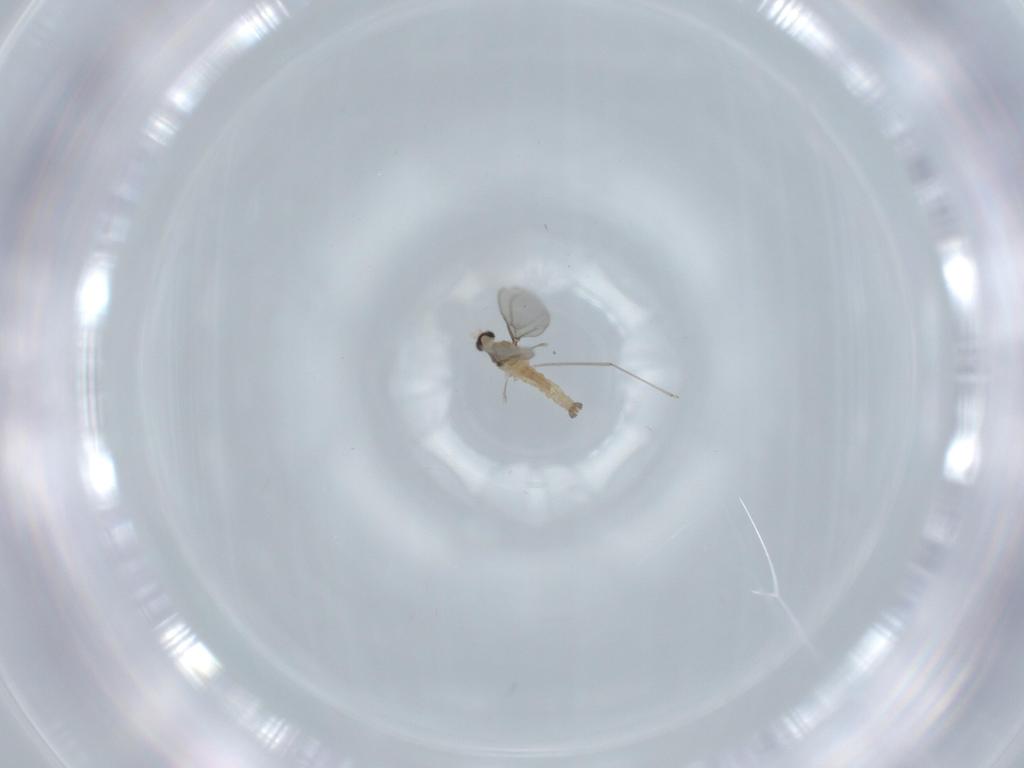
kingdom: Animalia
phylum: Arthropoda
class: Insecta
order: Diptera
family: Cecidomyiidae
